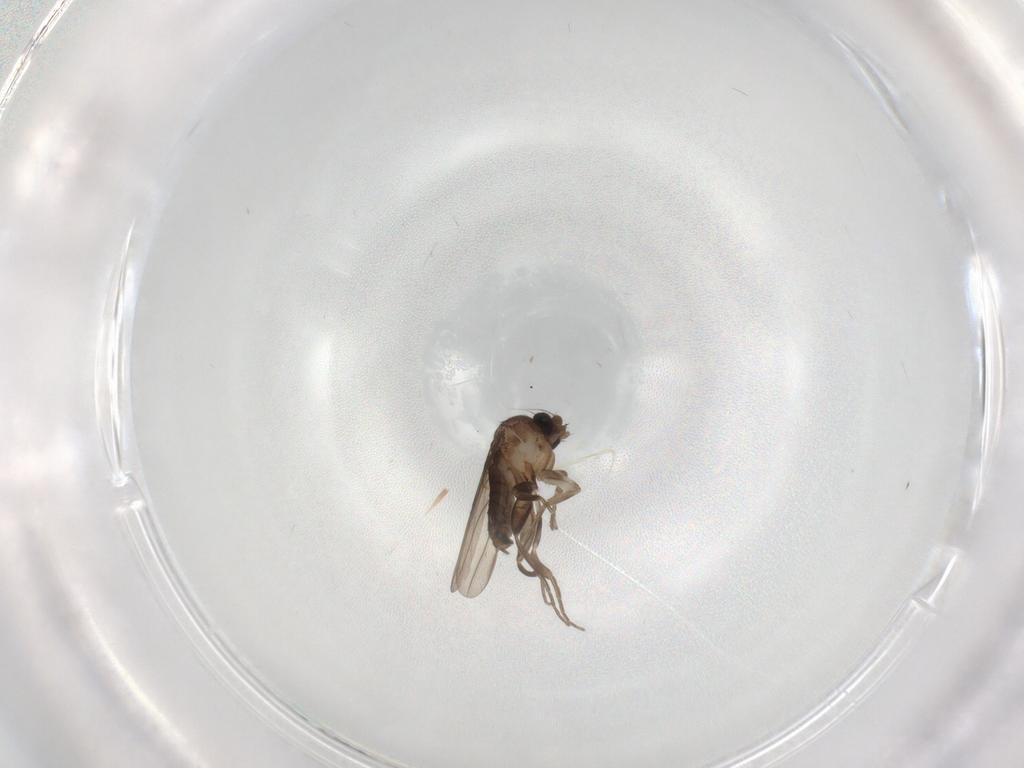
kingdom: Animalia
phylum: Arthropoda
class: Insecta
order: Diptera
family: Phoridae
